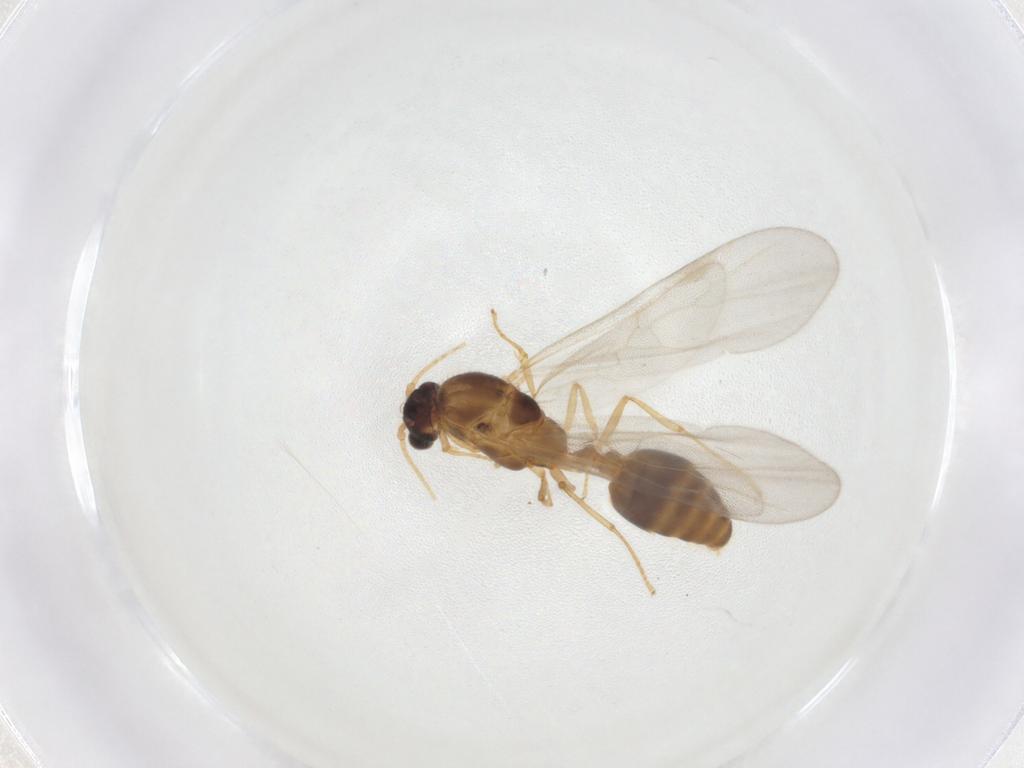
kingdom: Animalia
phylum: Arthropoda
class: Insecta
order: Hymenoptera
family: Formicidae
